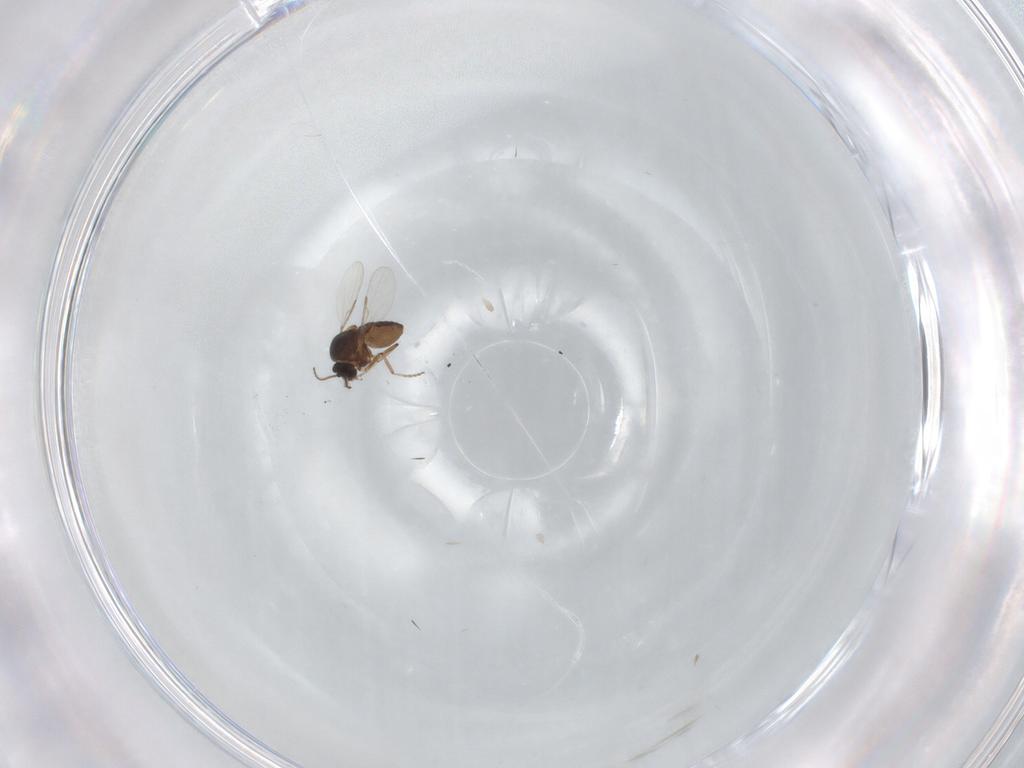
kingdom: Animalia
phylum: Arthropoda
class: Insecta
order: Diptera
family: Ceratopogonidae
